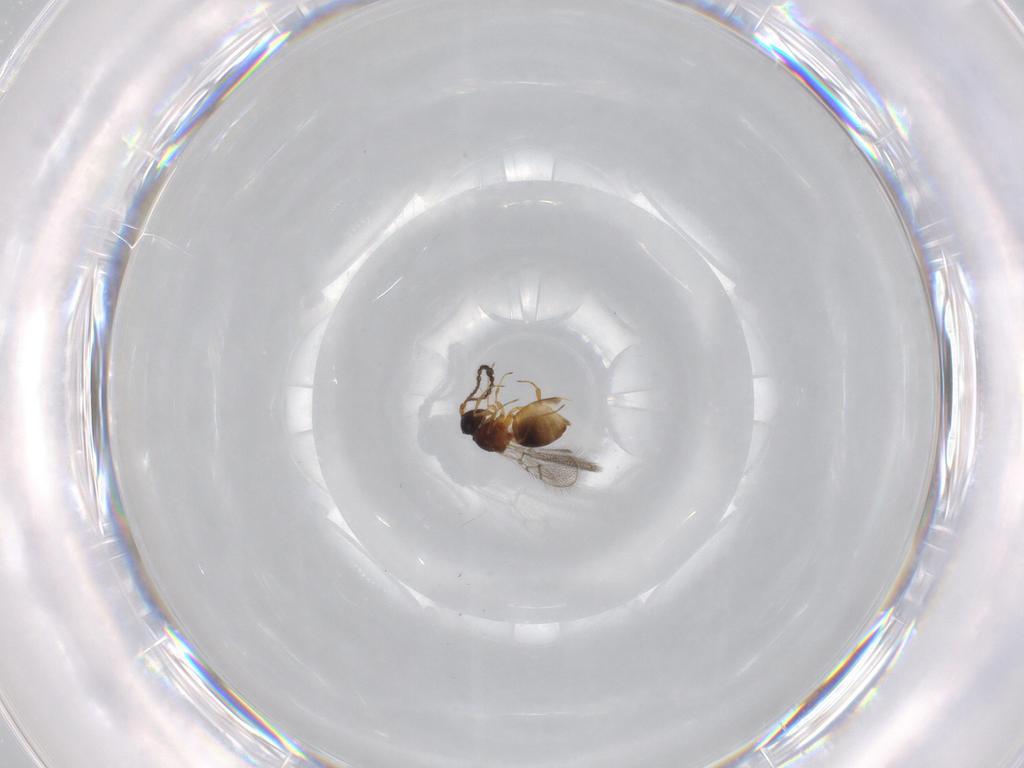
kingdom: Animalia
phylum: Arthropoda
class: Insecta
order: Hymenoptera
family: Figitidae
